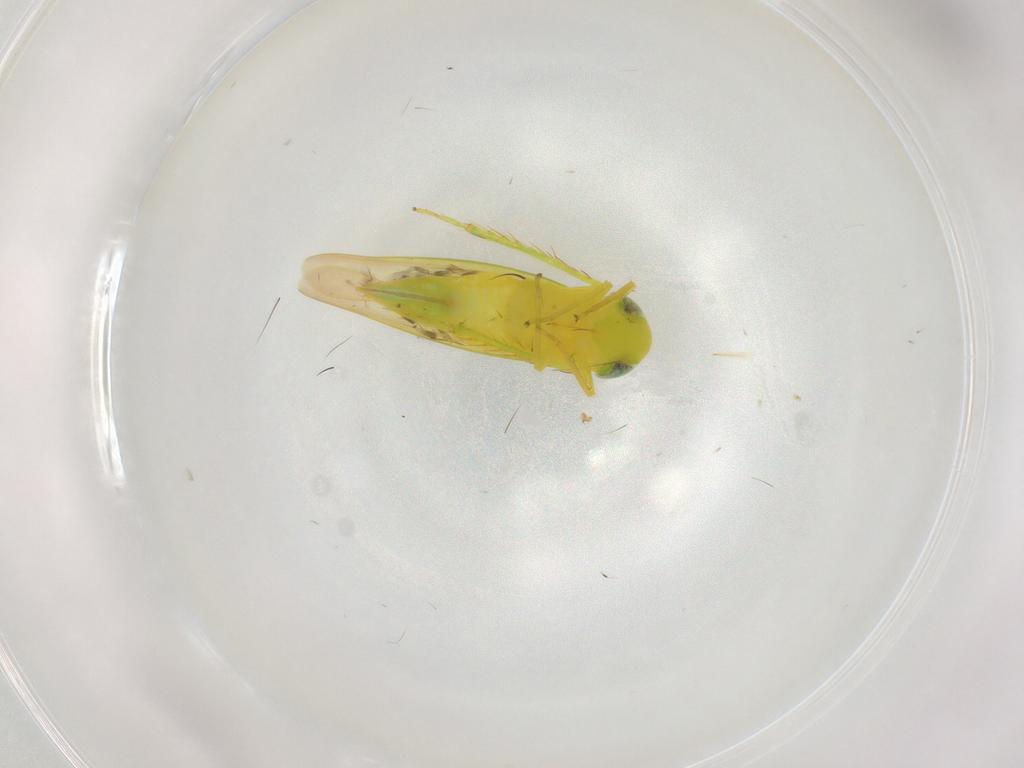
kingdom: Animalia
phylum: Arthropoda
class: Insecta
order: Hemiptera
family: Cicadellidae
